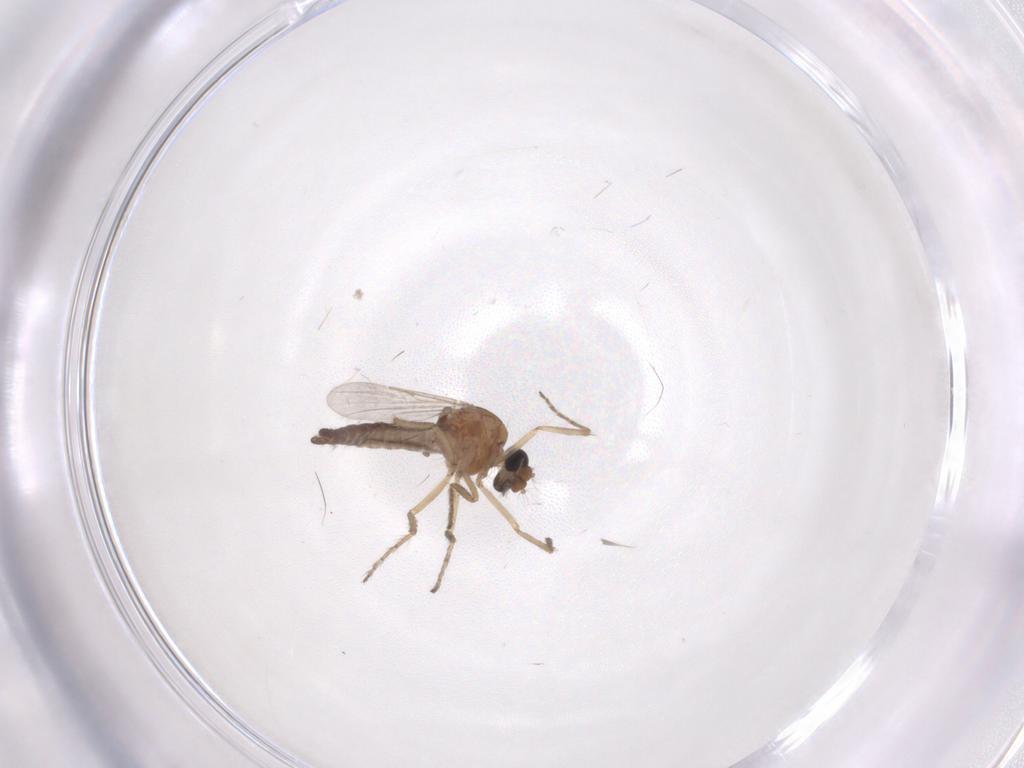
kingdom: Animalia
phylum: Arthropoda
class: Insecta
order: Diptera
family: Ceratopogonidae
